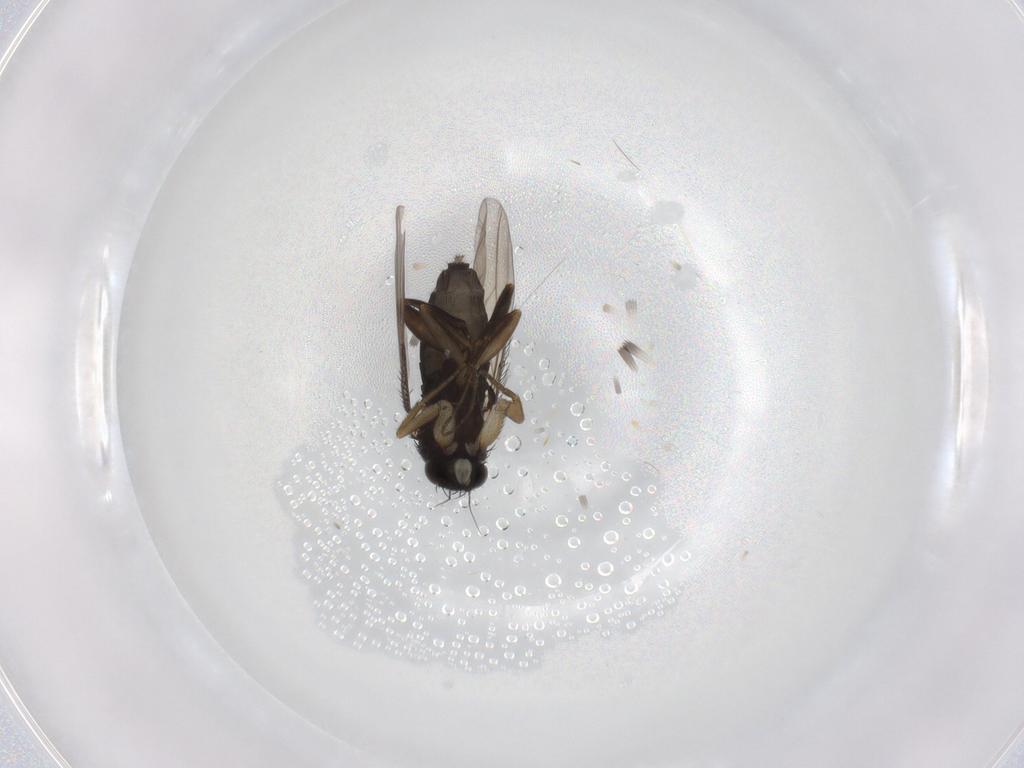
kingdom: Animalia
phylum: Arthropoda
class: Insecta
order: Diptera
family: Phoridae
